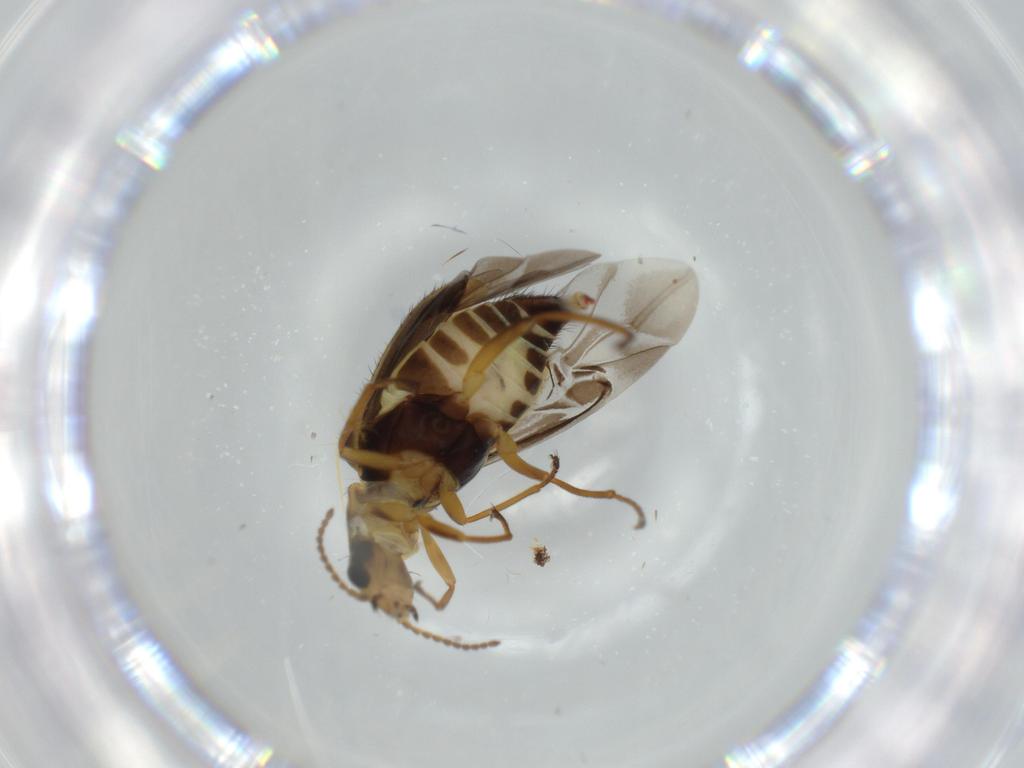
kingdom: Animalia
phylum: Arthropoda
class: Insecta
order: Coleoptera
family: Melyridae
